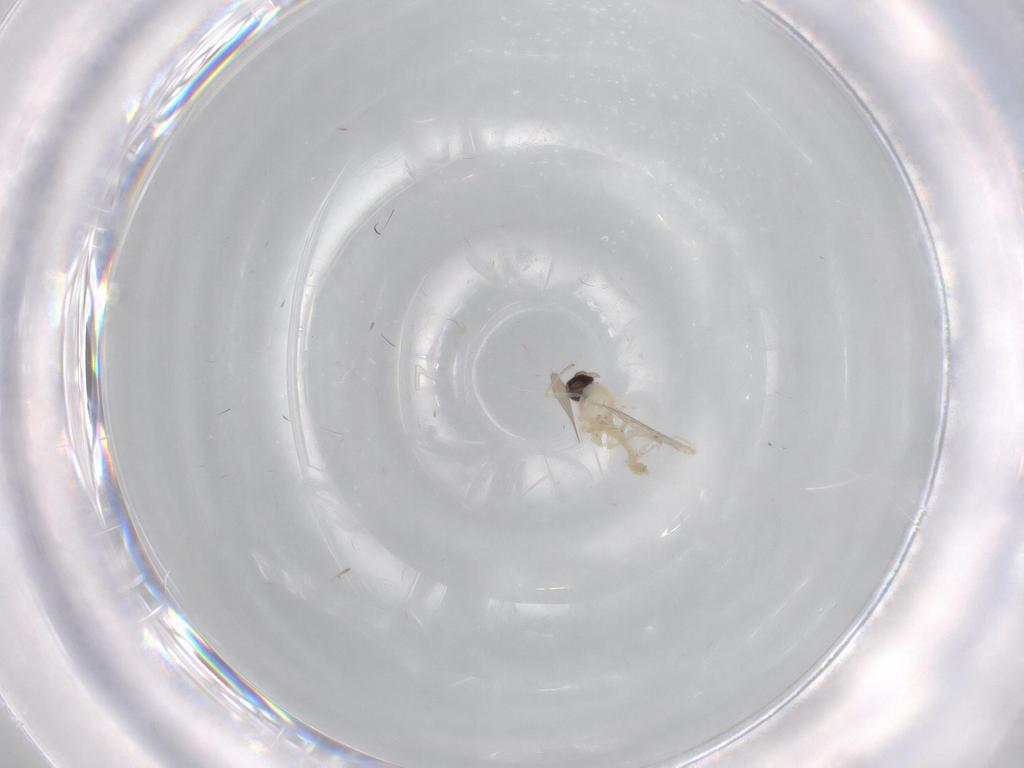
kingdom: Animalia
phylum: Arthropoda
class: Insecta
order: Diptera
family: Cecidomyiidae
